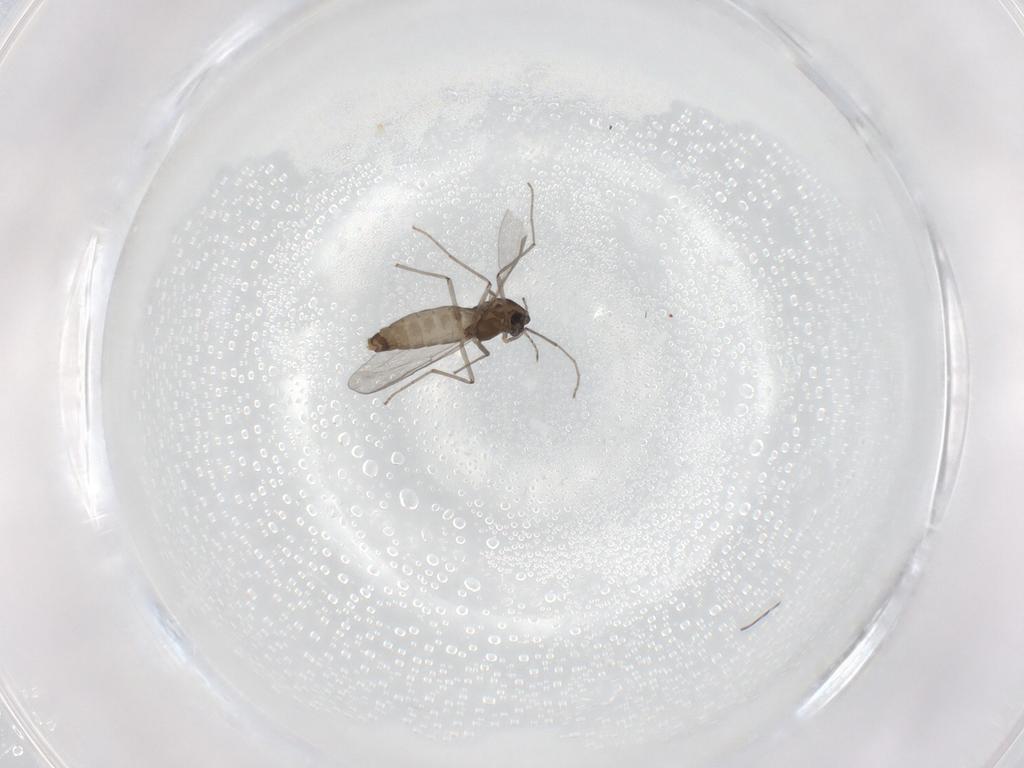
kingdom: Animalia
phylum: Arthropoda
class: Insecta
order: Diptera
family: Chironomidae
